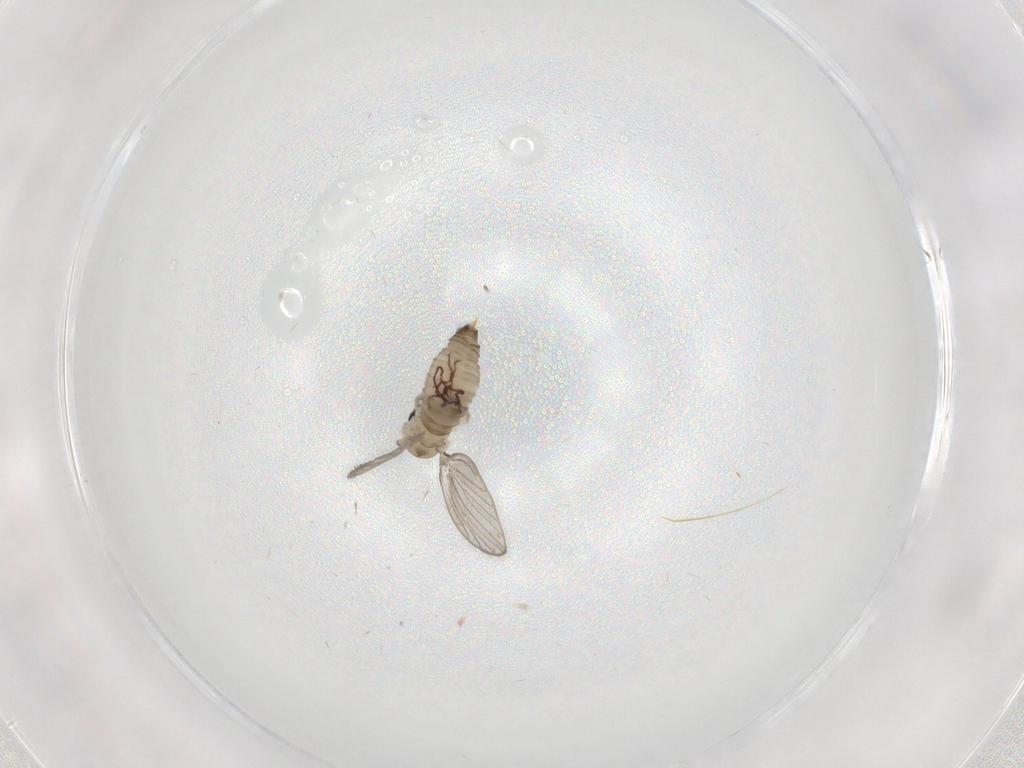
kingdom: Animalia
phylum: Arthropoda
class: Insecta
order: Diptera
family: Psychodidae
